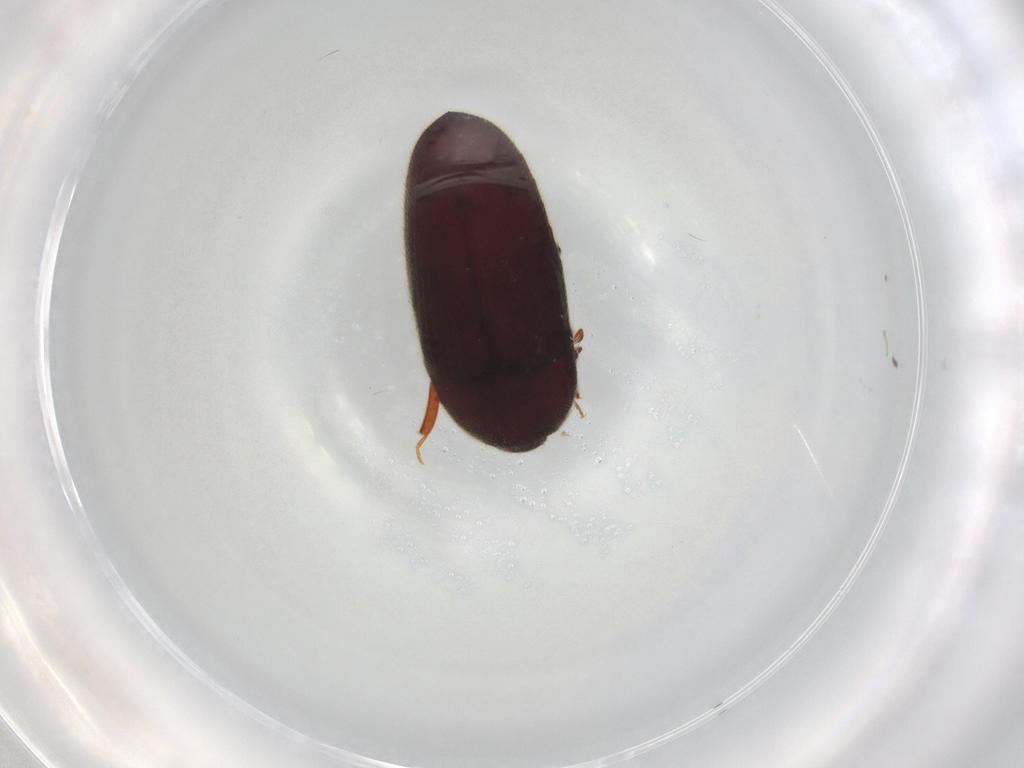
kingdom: Animalia
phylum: Arthropoda
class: Insecta
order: Coleoptera
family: Throscidae
